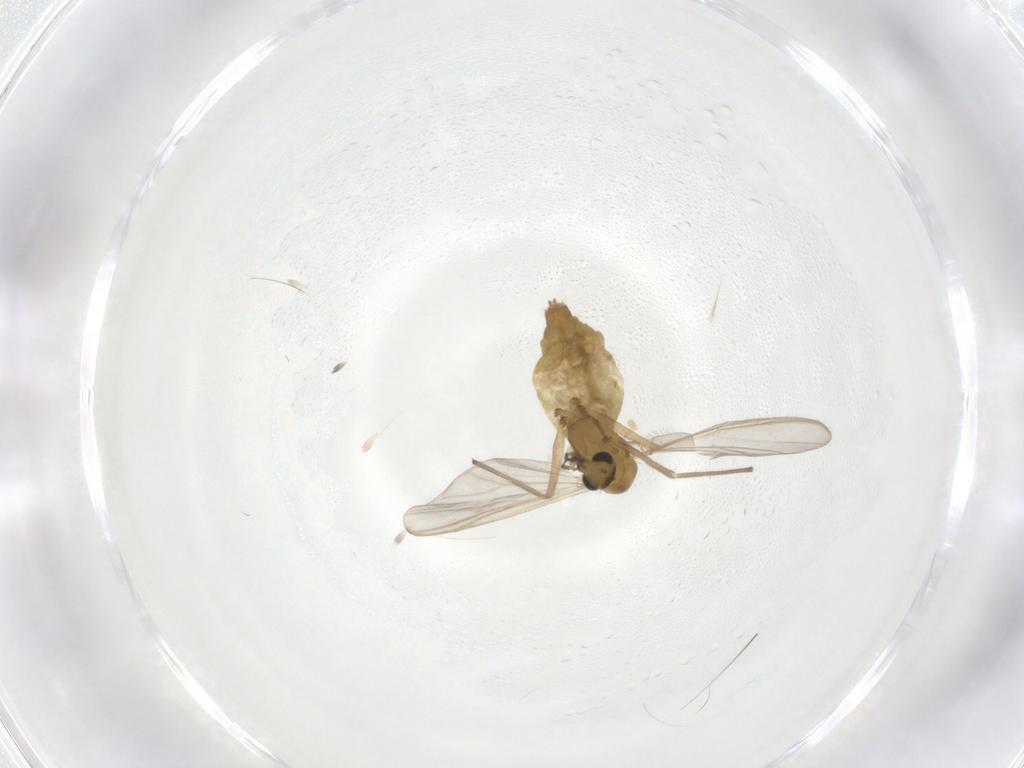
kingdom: Animalia
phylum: Arthropoda
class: Insecta
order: Diptera
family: Chironomidae
